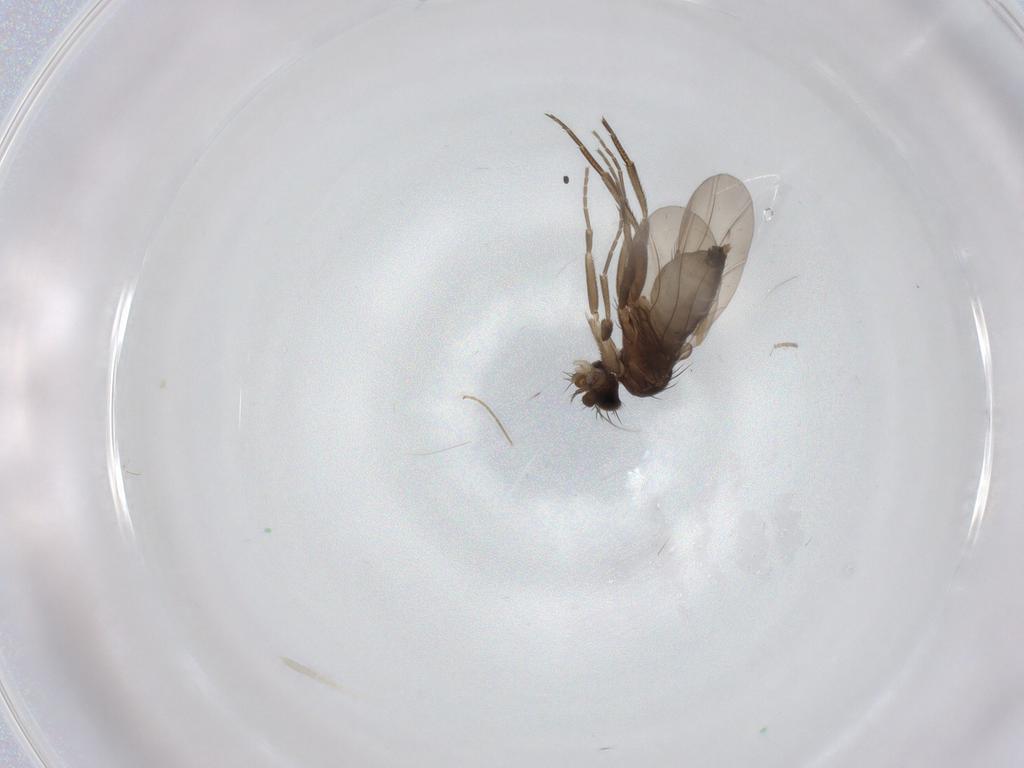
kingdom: Animalia
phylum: Arthropoda
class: Insecta
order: Diptera
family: Phoridae
